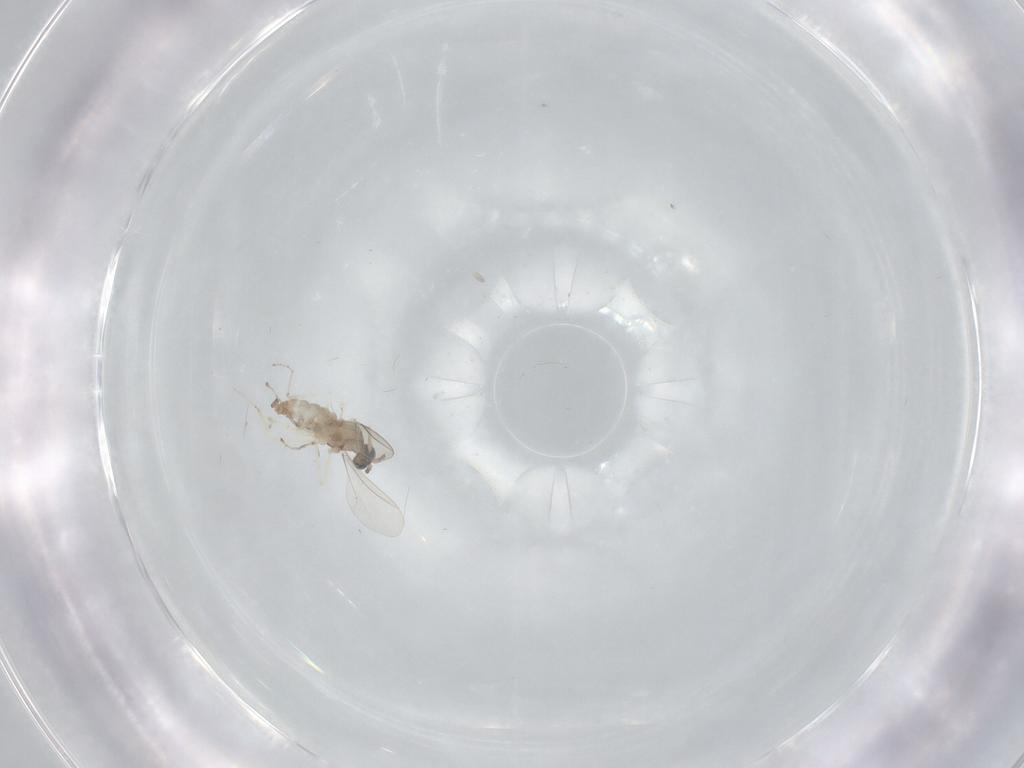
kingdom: Animalia
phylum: Arthropoda
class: Insecta
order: Diptera
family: Cecidomyiidae
